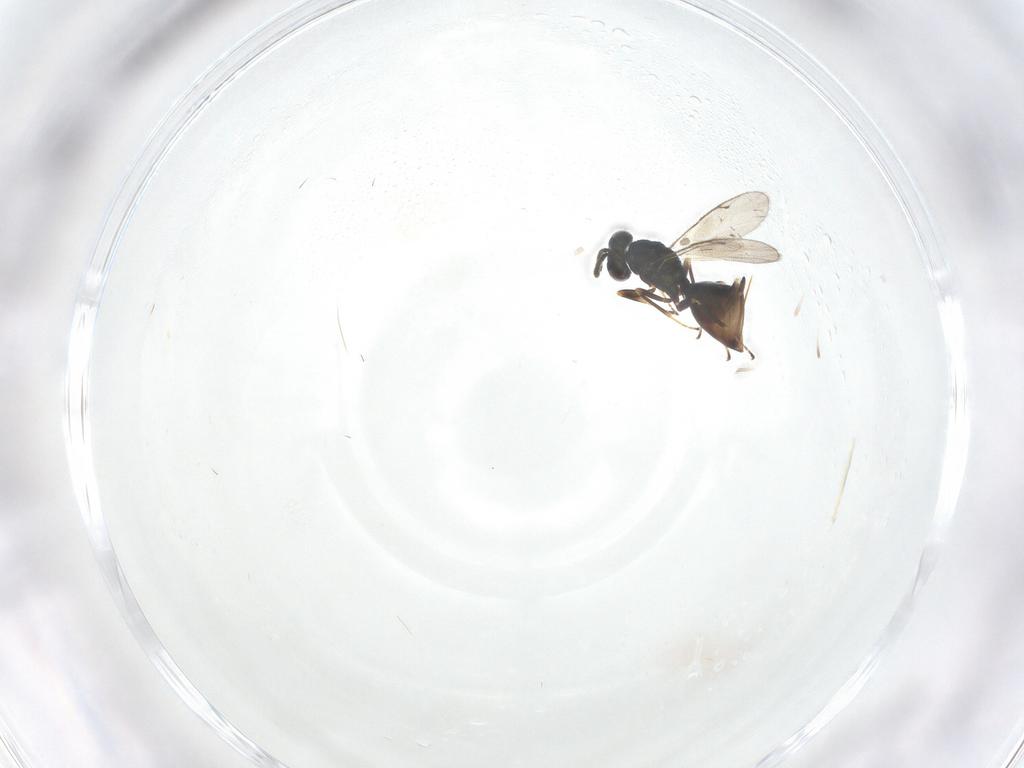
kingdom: Animalia
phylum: Arthropoda
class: Insecta
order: Hymenoptera
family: Pteromalidae
